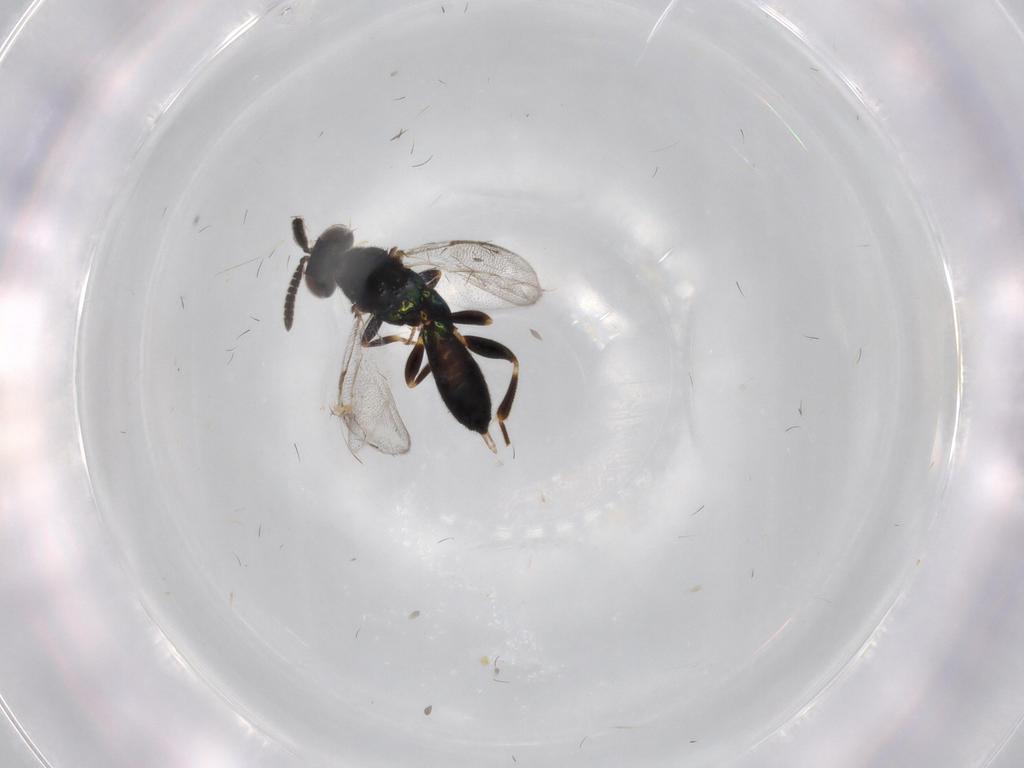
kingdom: Animalia
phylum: Arthropoda
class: Insecta
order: Hymenoptera
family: Cleonyminae
